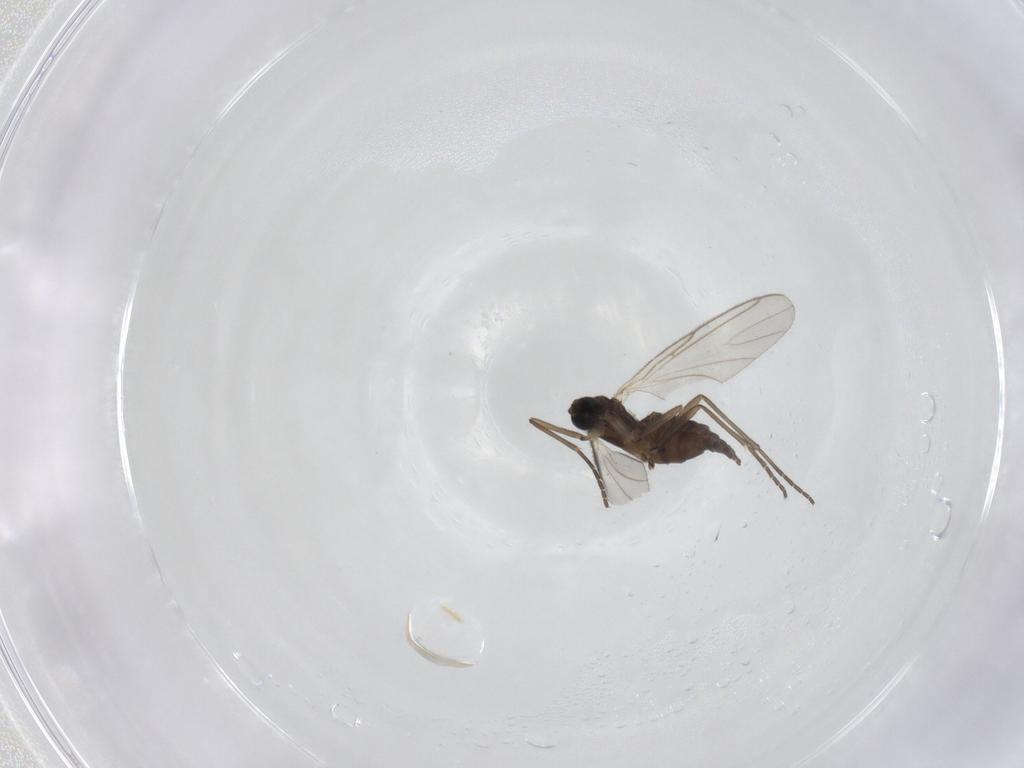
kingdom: Animalia
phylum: Arthropoda
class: Insecta
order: Diptera
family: Sciaridae
